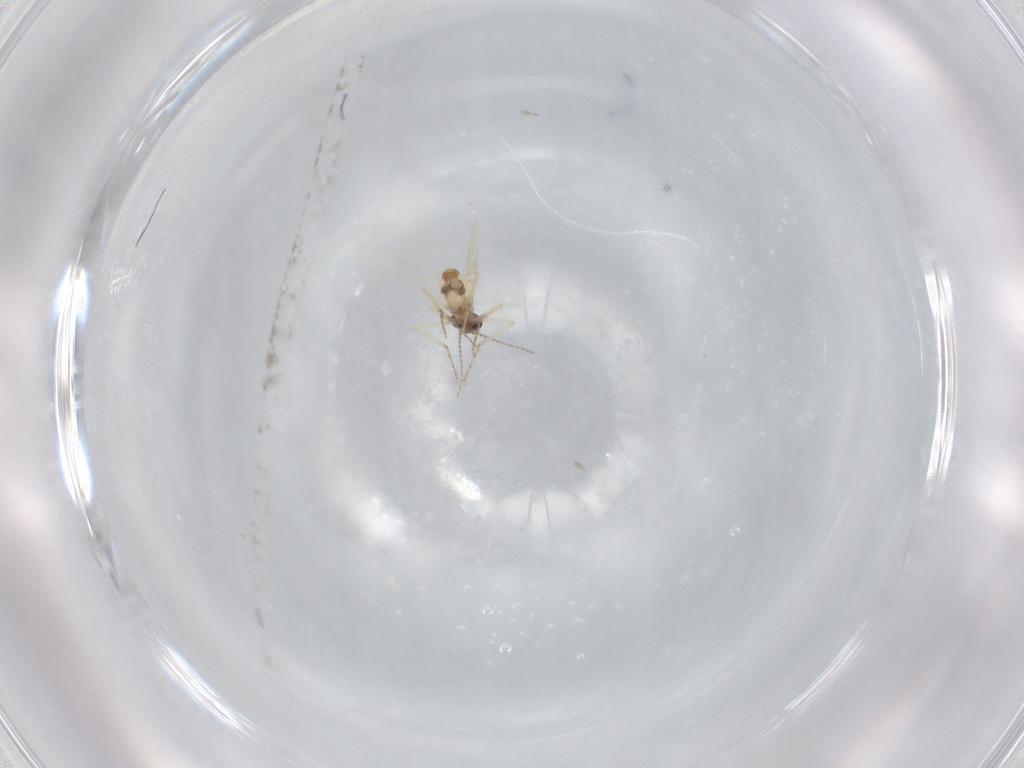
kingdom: Animalia
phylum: Arthropoda
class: Insecta
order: Diptera
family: Ceratopogonidae
